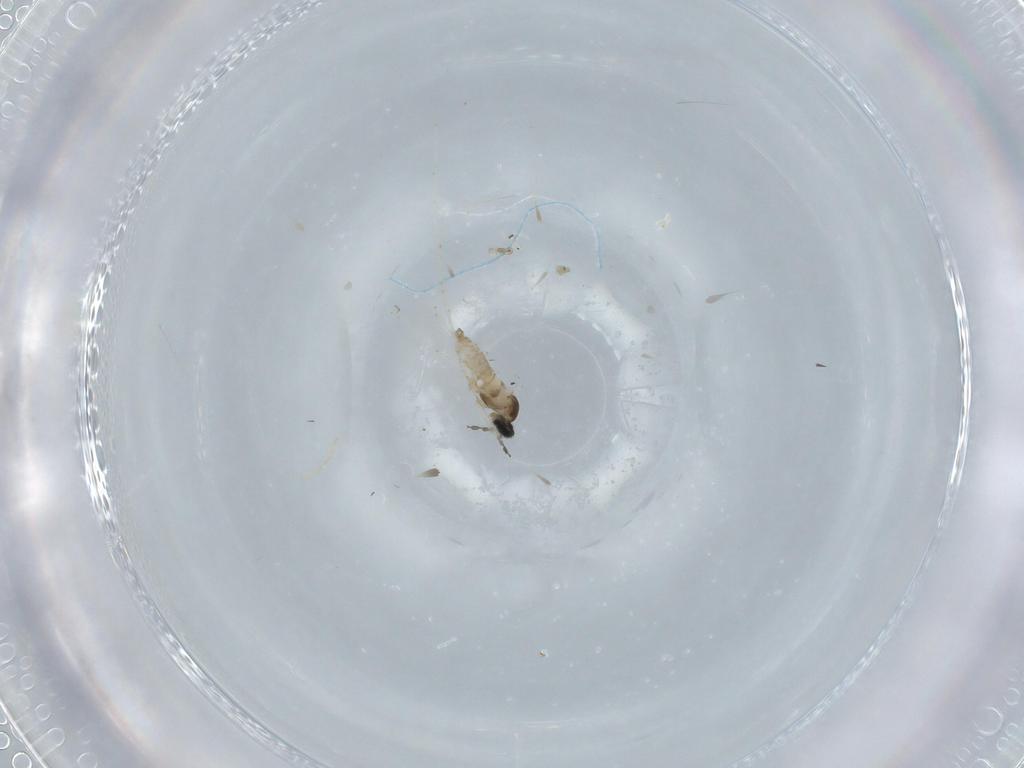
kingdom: Animalia
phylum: Arthropoda
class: Insecta
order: Diptera
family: Cecidomyiidae
